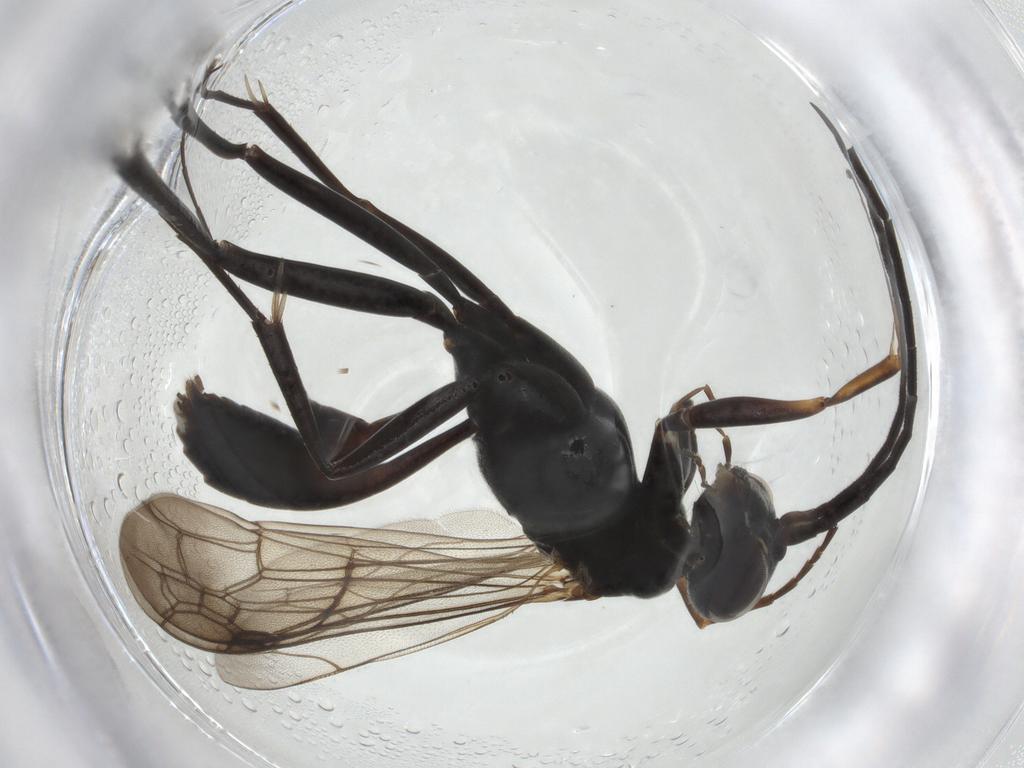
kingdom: Animalia
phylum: Arthropoda
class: Insecta
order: Hymenoptera
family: Pompilidae
